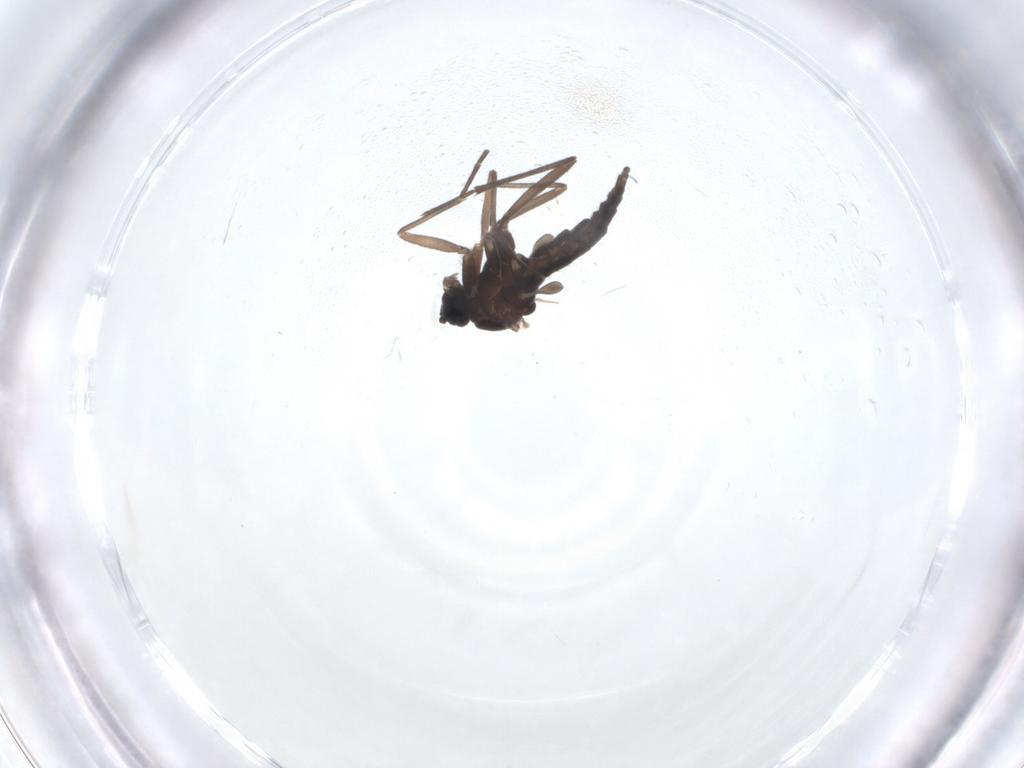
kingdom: Animalia
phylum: Arthropoda
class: Insecta
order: Diptera
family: Sciaridae
